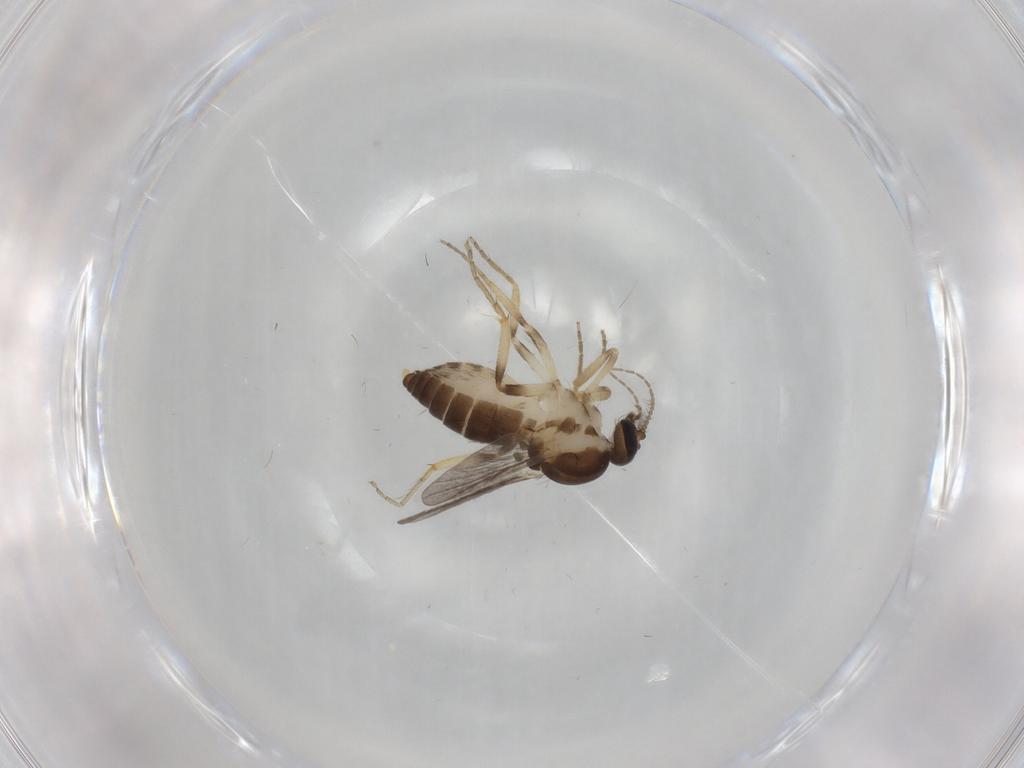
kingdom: Animalia
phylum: Arthropoda
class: Insecta
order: Diptera
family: Ceratopogonidae
